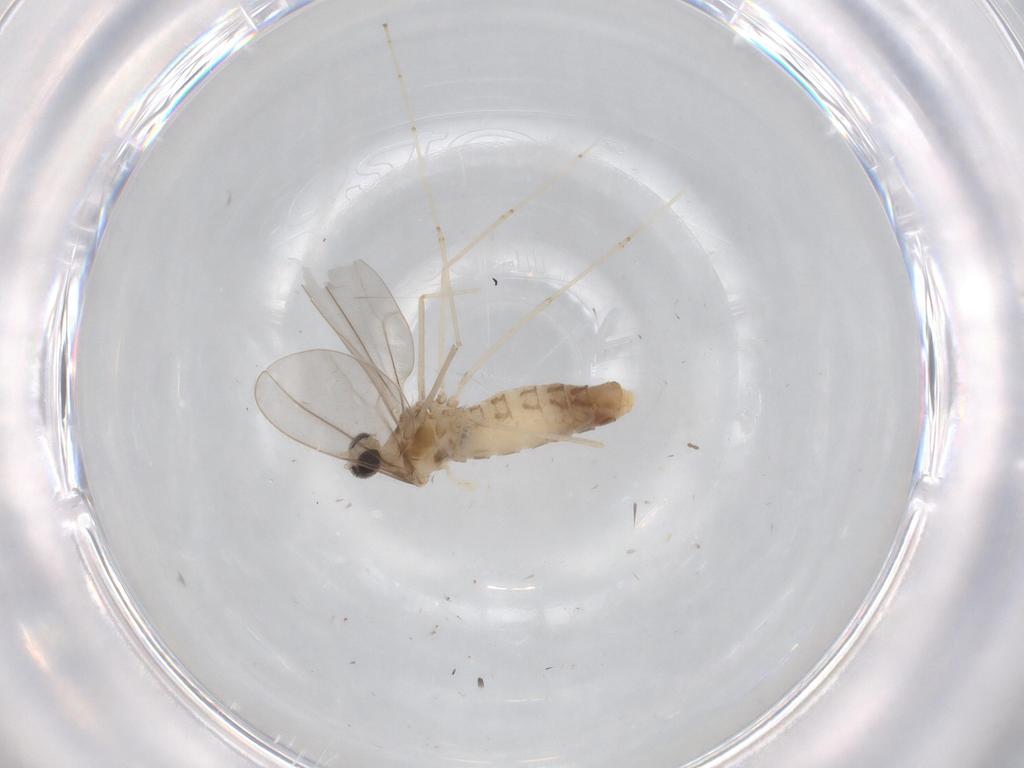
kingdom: Animalia
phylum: Arthropoda
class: Insecta
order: Diptera
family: Cecidomyiidae
